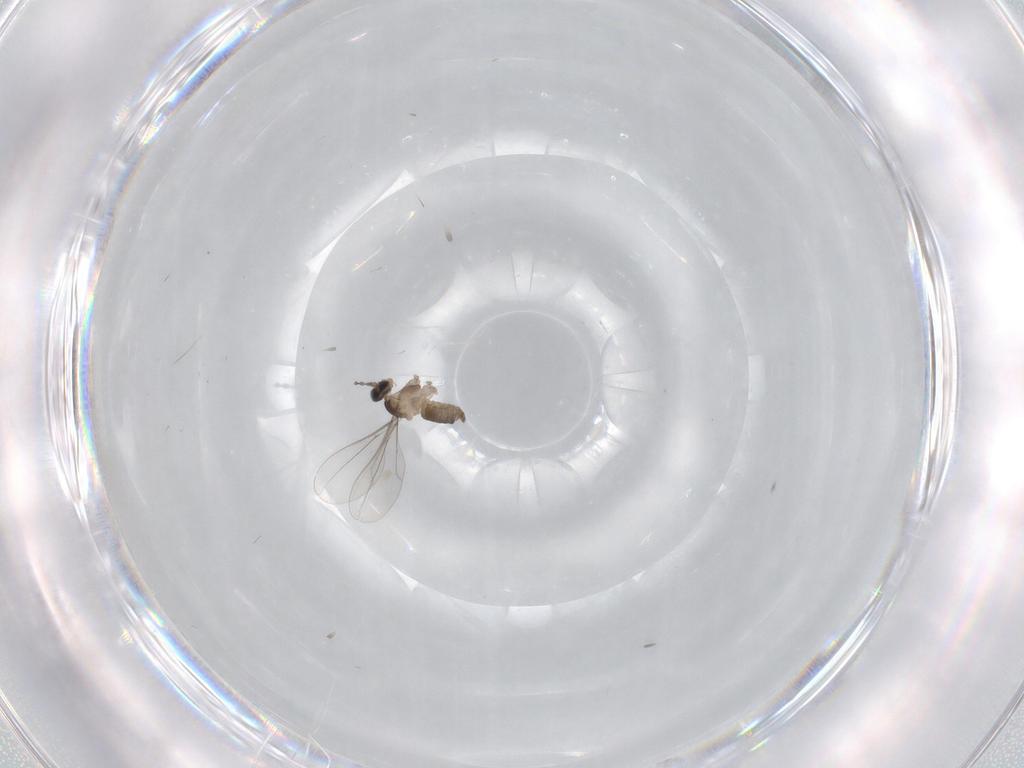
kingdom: Animalia
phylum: Arthropoda
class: Insecta
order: Diptera
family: Cecidomyiidae
